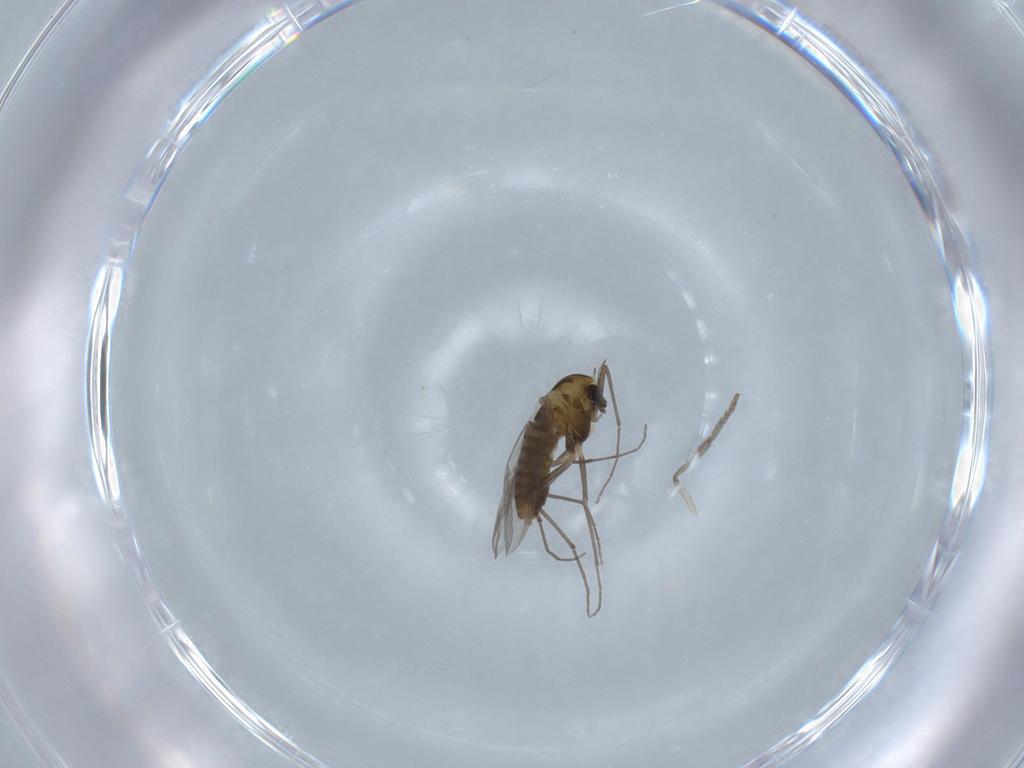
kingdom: Animalia
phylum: Arthropoda
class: Insecta
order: Diptera
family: Chironomidae
